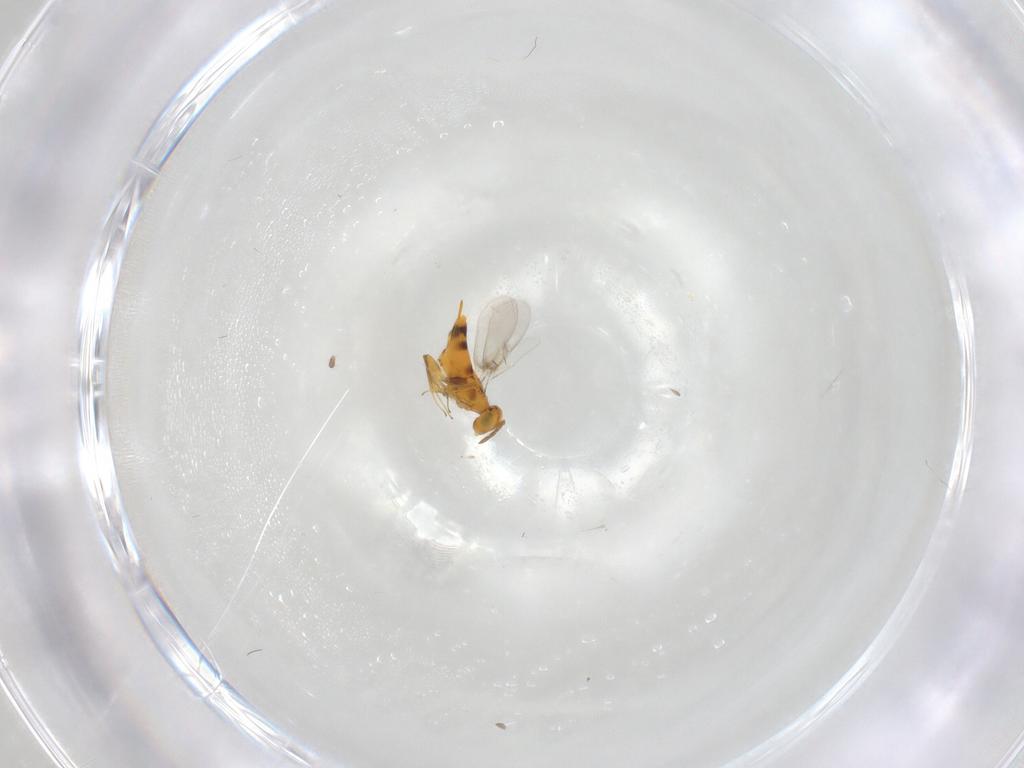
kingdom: Animalia
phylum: Arthropoda
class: Insecta
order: Hymenoptera
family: Aphelinidae
